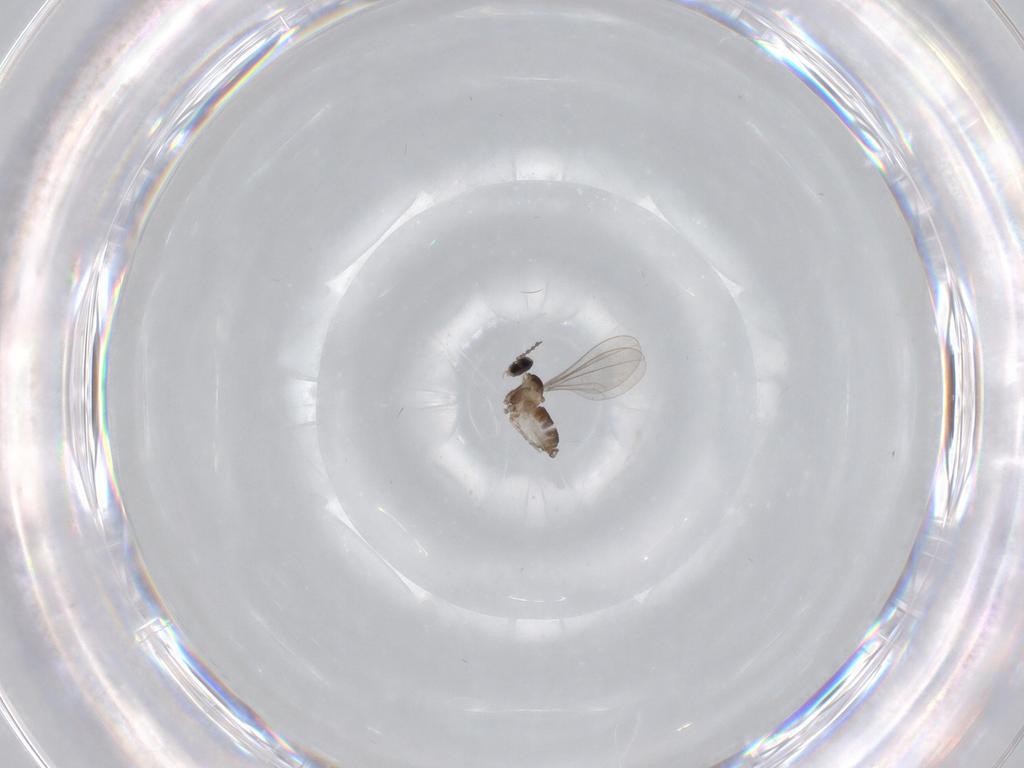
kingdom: Animalia
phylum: Arthropoda
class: Insecta
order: Diptera
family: Cecidomyiidae
